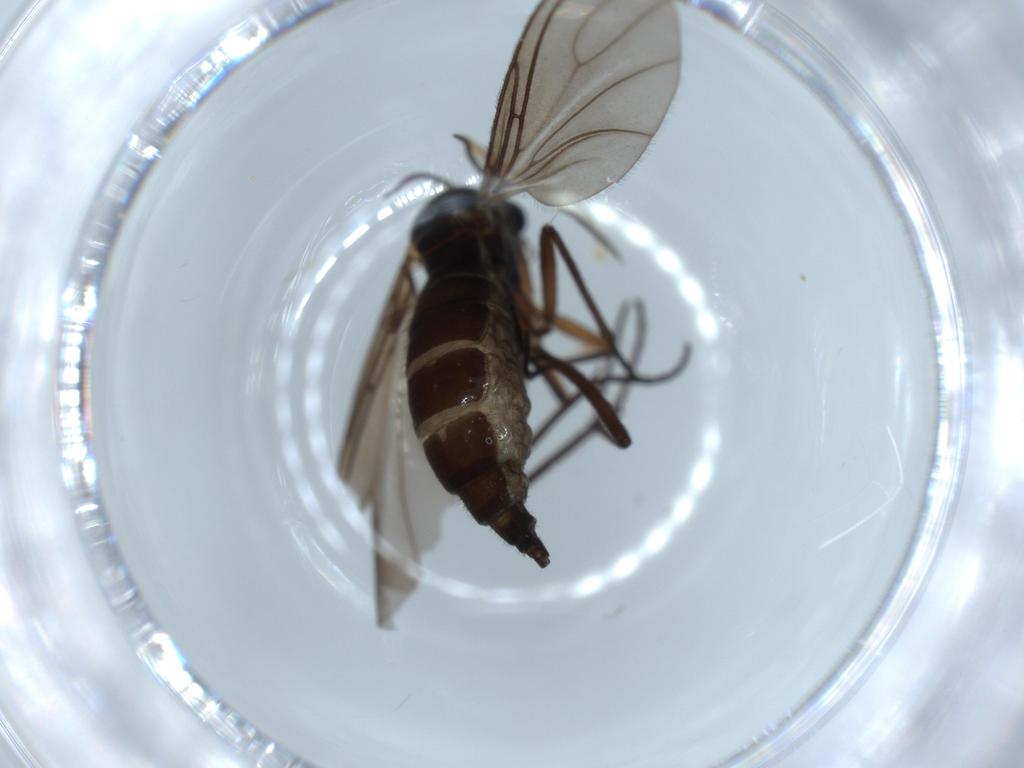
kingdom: Animalia
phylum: Arthropoda
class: Insecta
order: Diptera
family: Sciaridae
